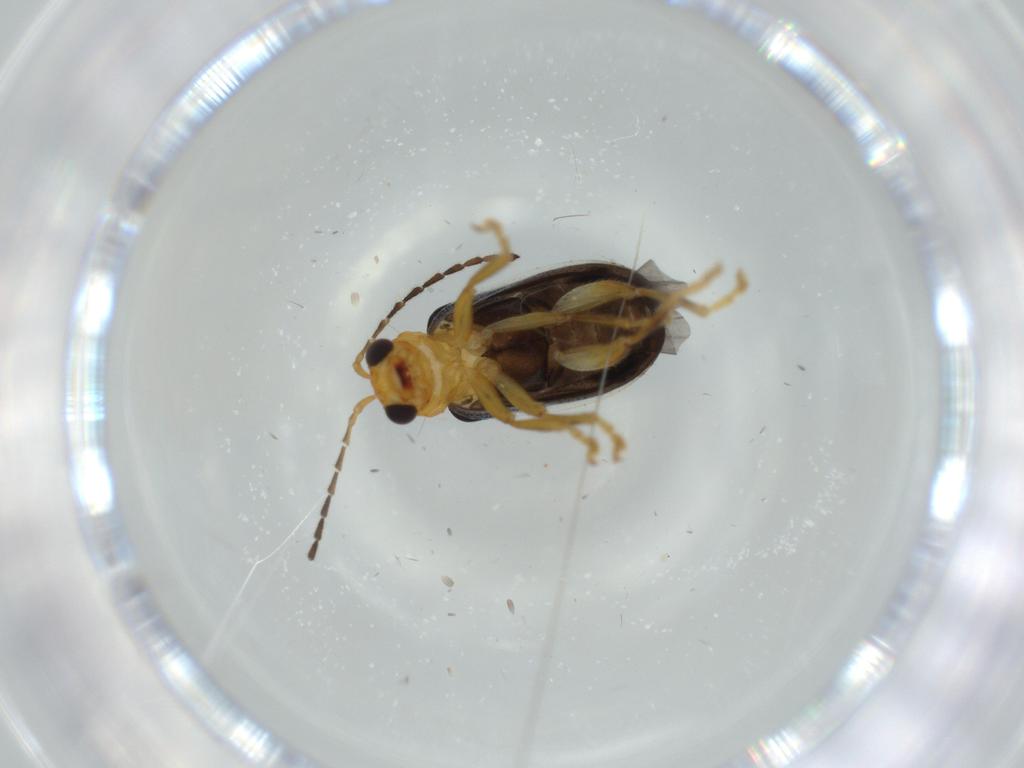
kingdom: Animalia
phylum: Arthropoda
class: Insecta
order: Coleoptera
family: Chrysomelidae
